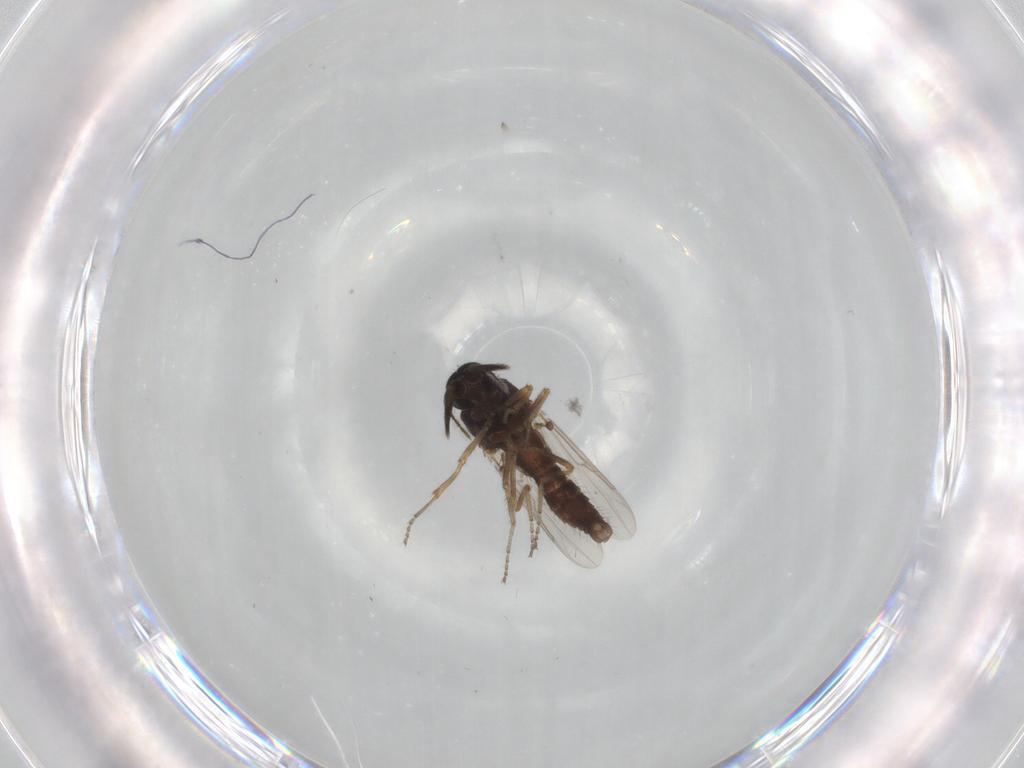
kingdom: Animalia
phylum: Arthropoda
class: Insecta
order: Diptera
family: Ceratopogonidae
